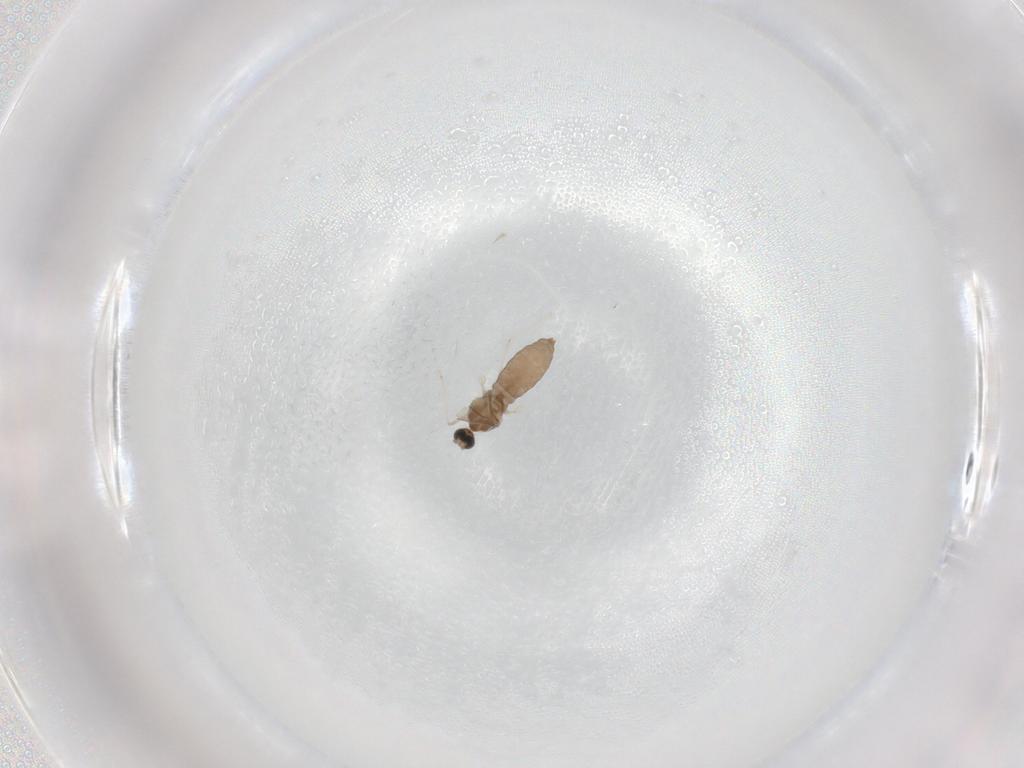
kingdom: Animalia
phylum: Arthropoda
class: Insecta
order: Diptera
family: Cecidomyiidae
